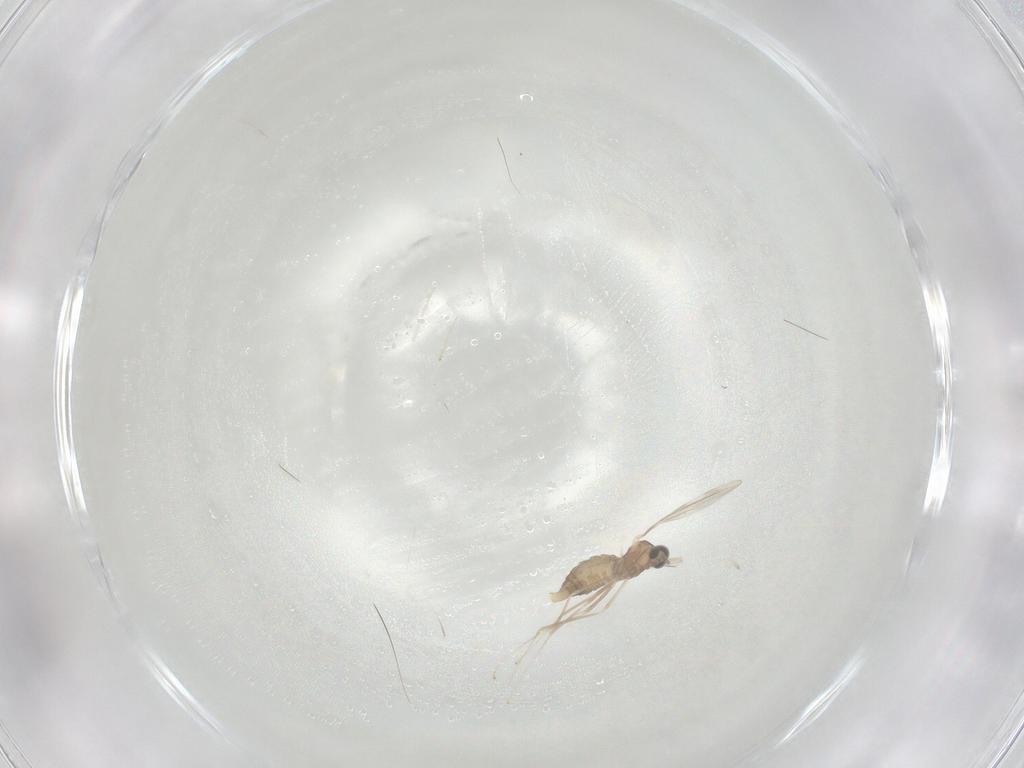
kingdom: Animalia
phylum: Arthropoda
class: Insecta
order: Diptera
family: Cecidomyiidae
